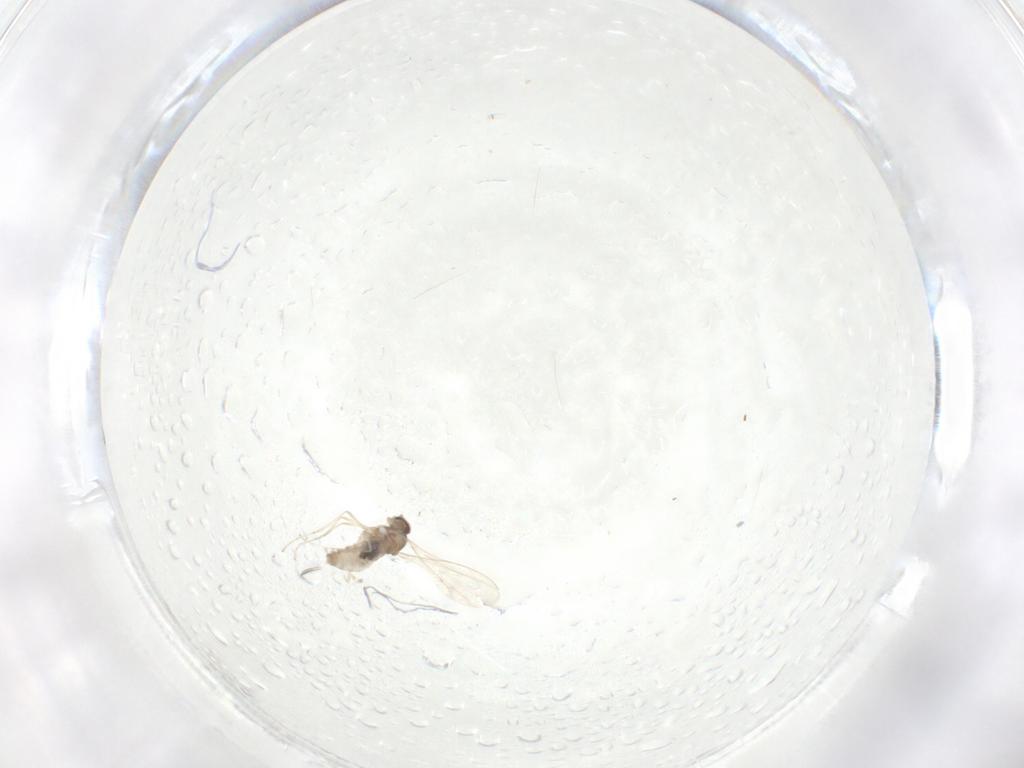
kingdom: Animalia
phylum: Arthropoda
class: Insecta
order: Diptera
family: Cecidomyiidae
